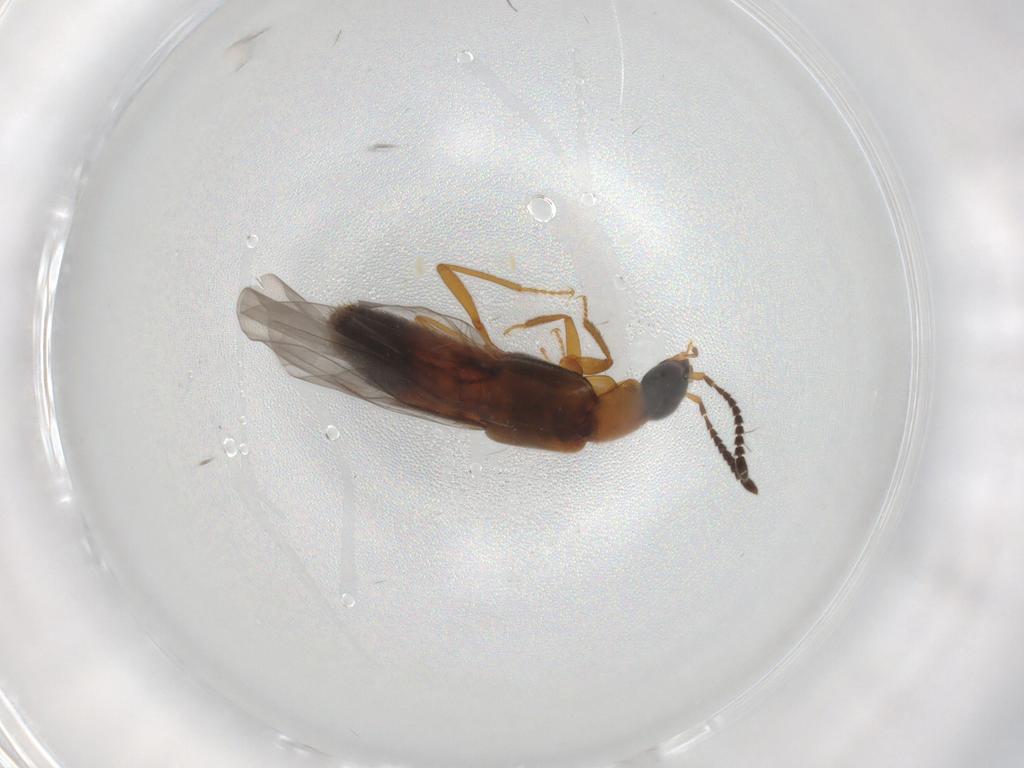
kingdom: Animalia
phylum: Arthropoda
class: Insecta
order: Coleoptera
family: Staphylinidae
